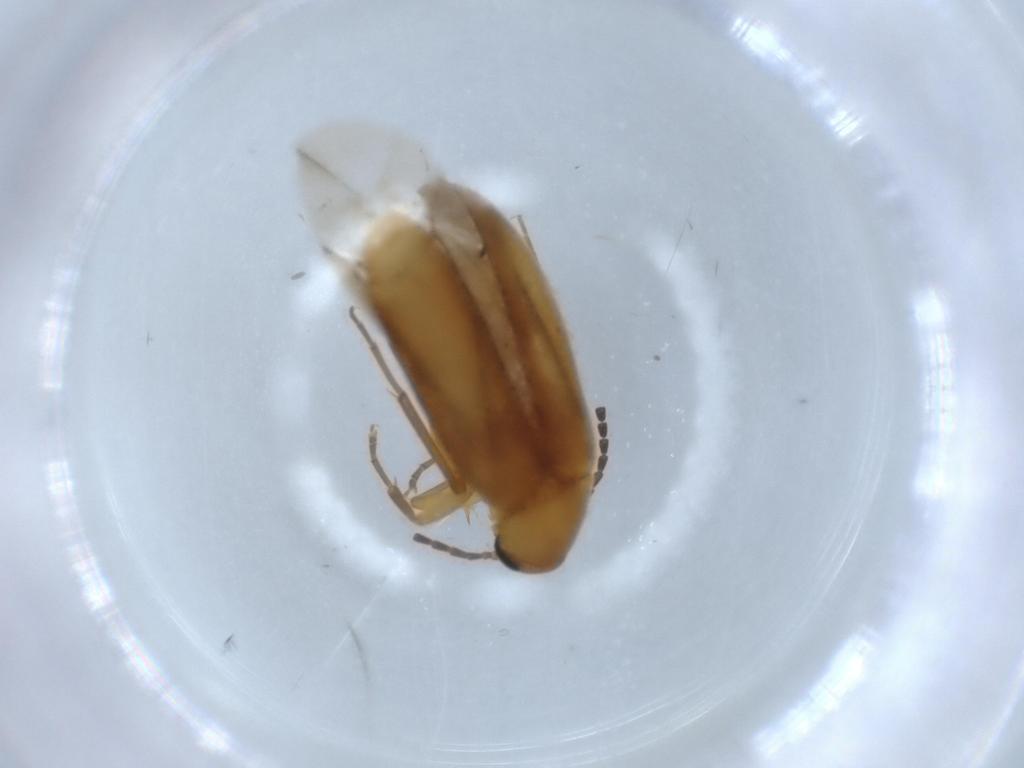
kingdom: Animalia
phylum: Arthropoda
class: Insecta
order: Coleoptera
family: Scraptiidae
